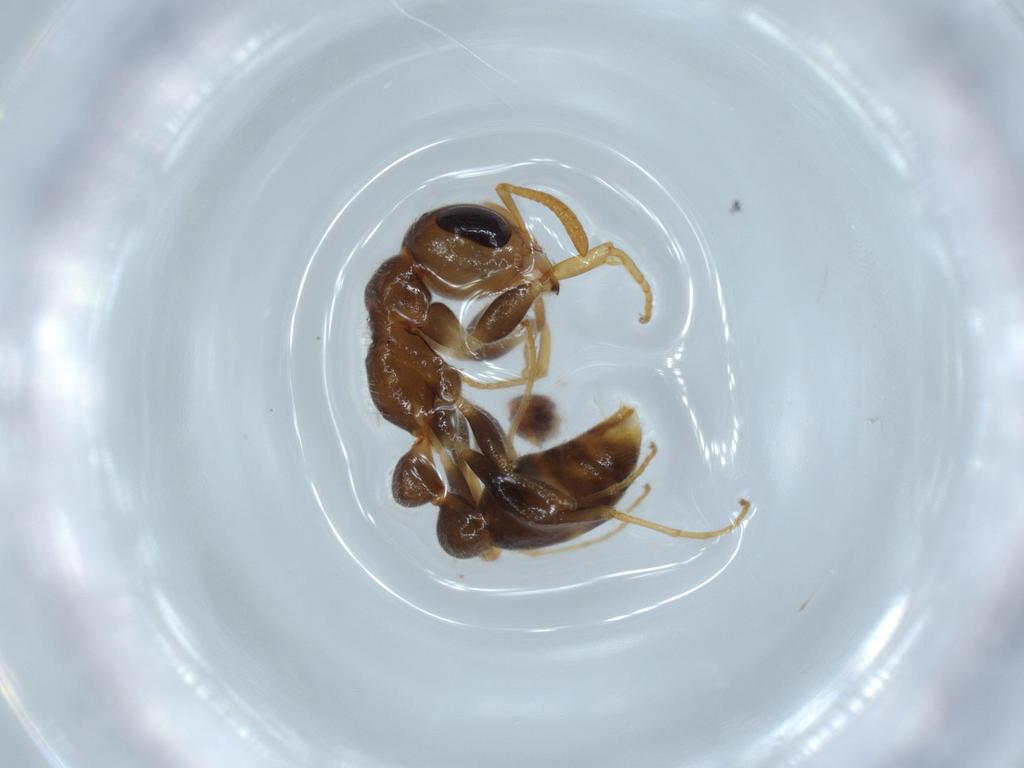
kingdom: Animalia
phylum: Arthropoda
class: Insecta
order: Hymenoptera
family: Formicidae
